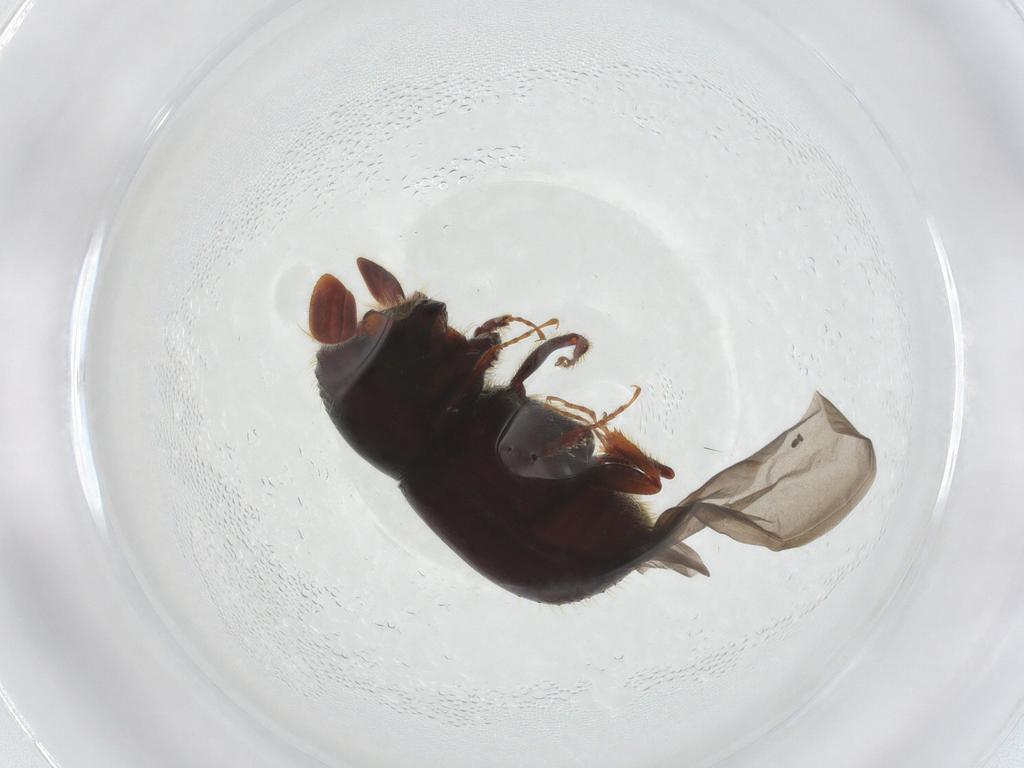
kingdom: Animalia
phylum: Arthropoda
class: Insecta
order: Coleoptera
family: Curculionidae
